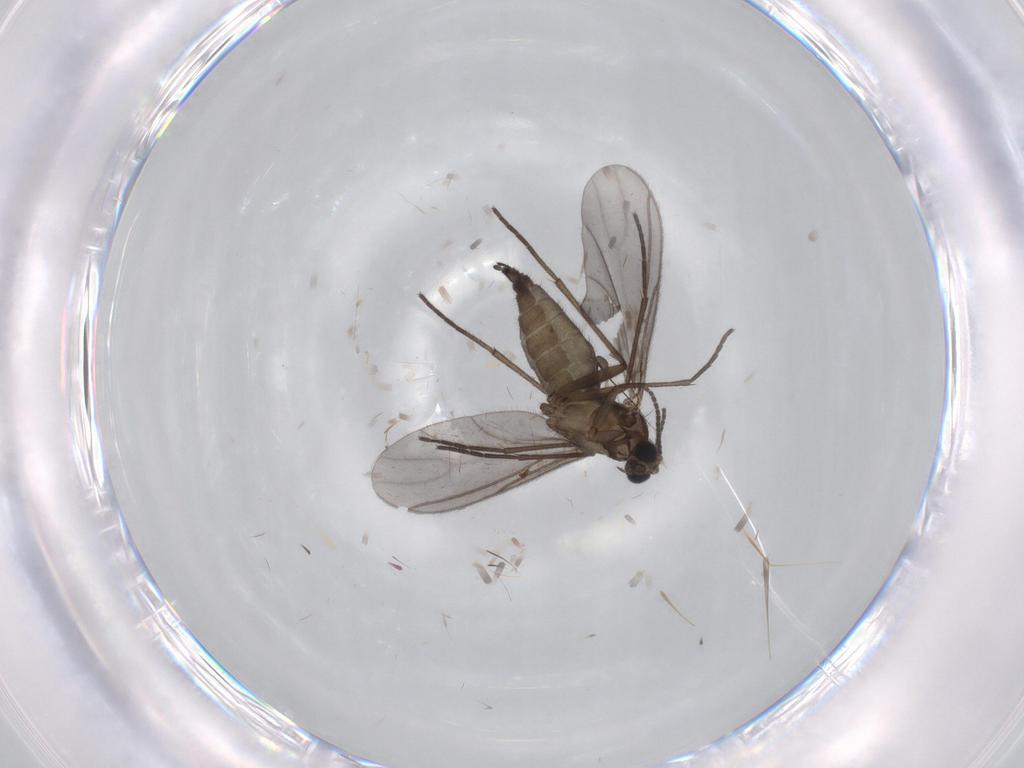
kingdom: Animalia
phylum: Arthropoda
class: Insecta
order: Diptera
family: Sciaridae
